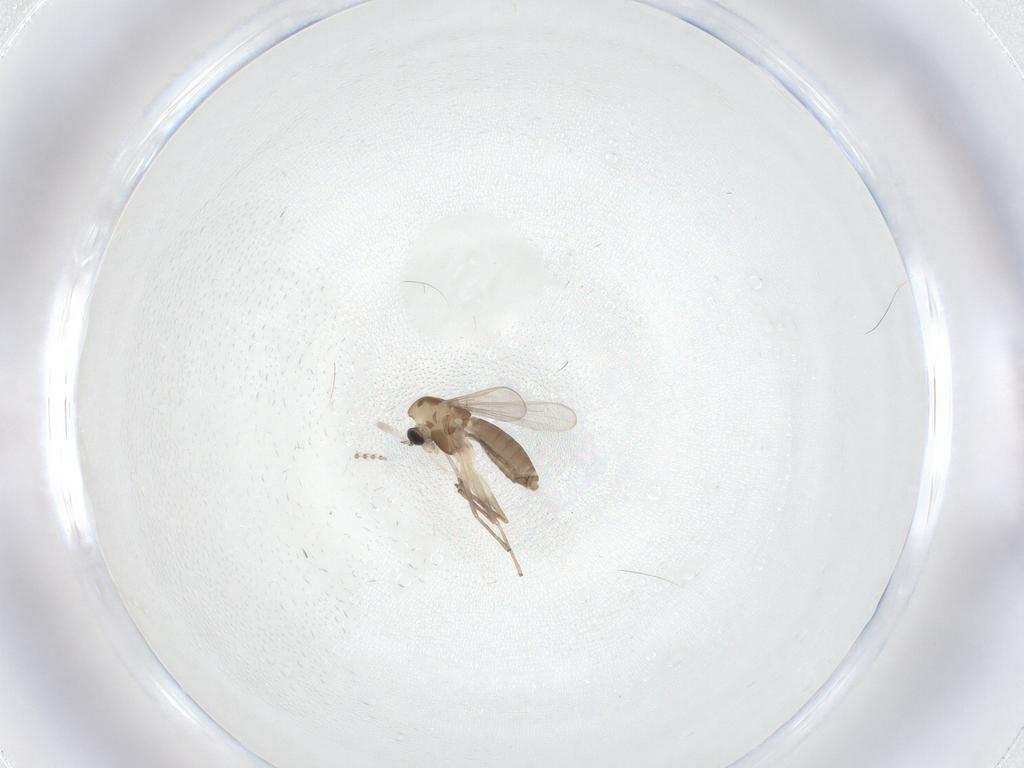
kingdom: Animalia
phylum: Arthropoda
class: Insecta
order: Diptera
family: Psychodidae
